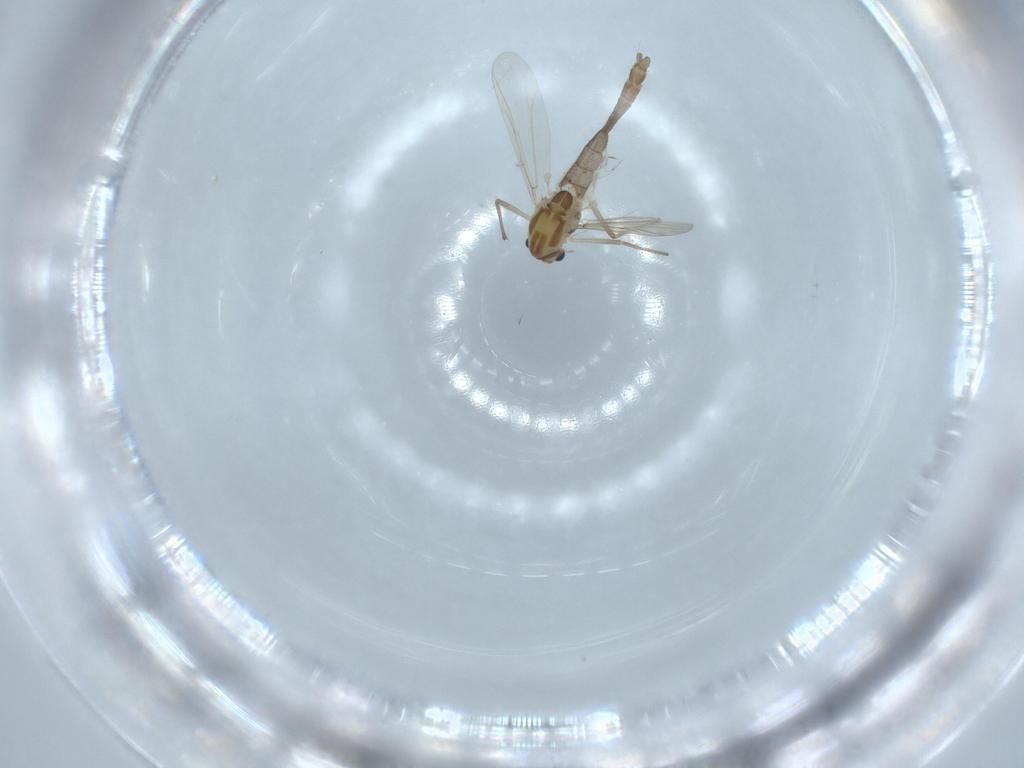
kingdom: Animalia
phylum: Arthropoda
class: Insecta
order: Diptera
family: Chironomidae
